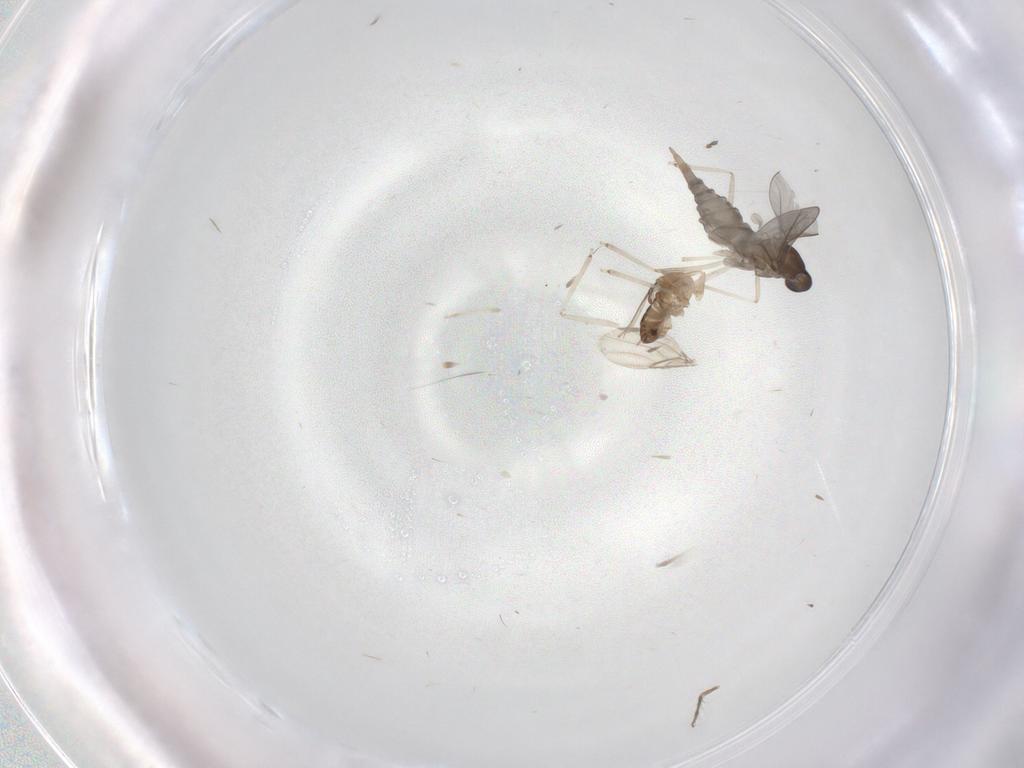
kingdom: Animalia
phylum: Arthropoda
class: Insecta
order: Diptera
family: Cecidomyiidae
